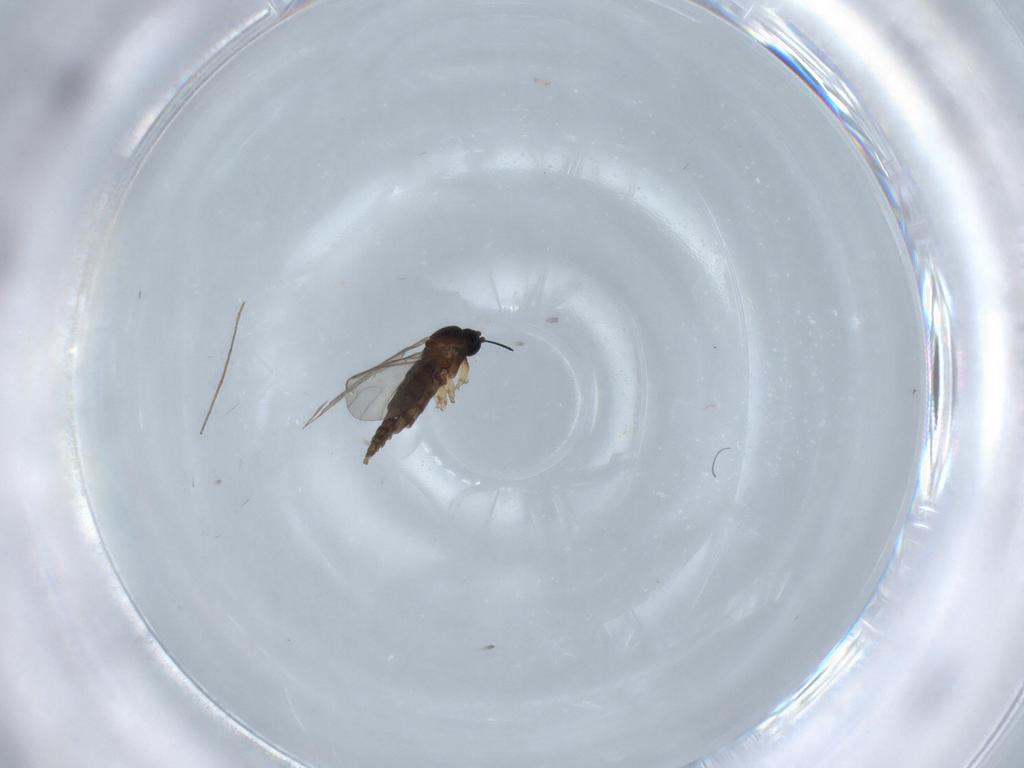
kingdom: Animalia
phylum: Arthropoda
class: Insecta
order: Diptera
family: Sciaridae
